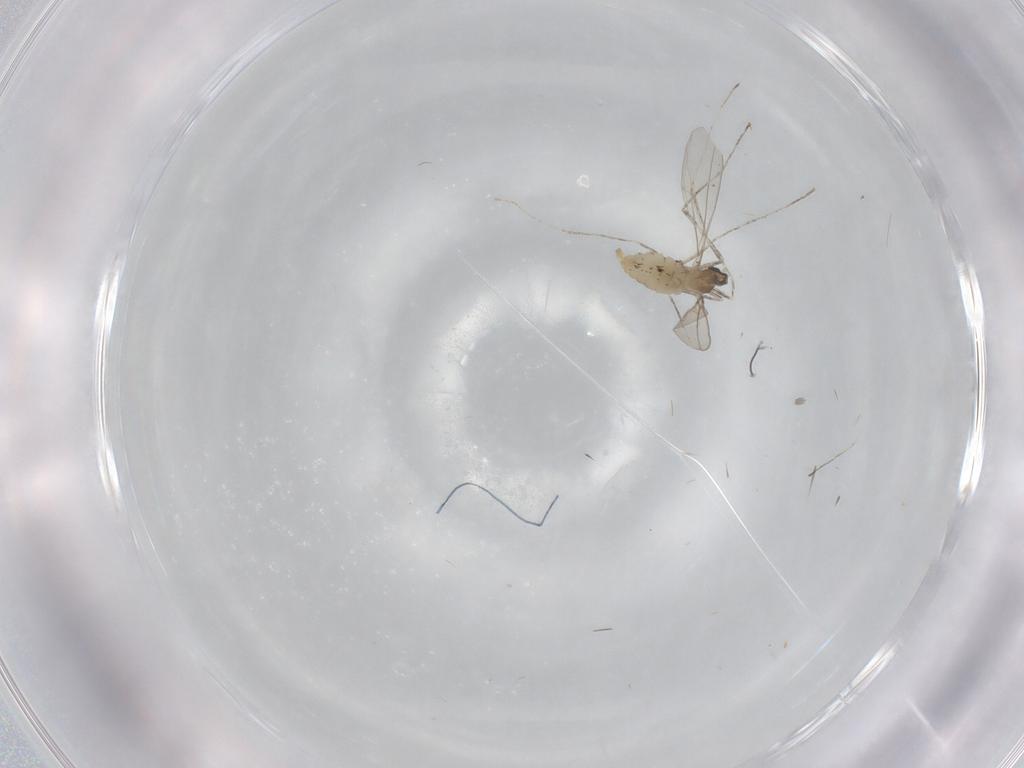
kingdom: Animalia
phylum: Arthropoda
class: Insecta
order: Diptera
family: Cecidomyiidae
